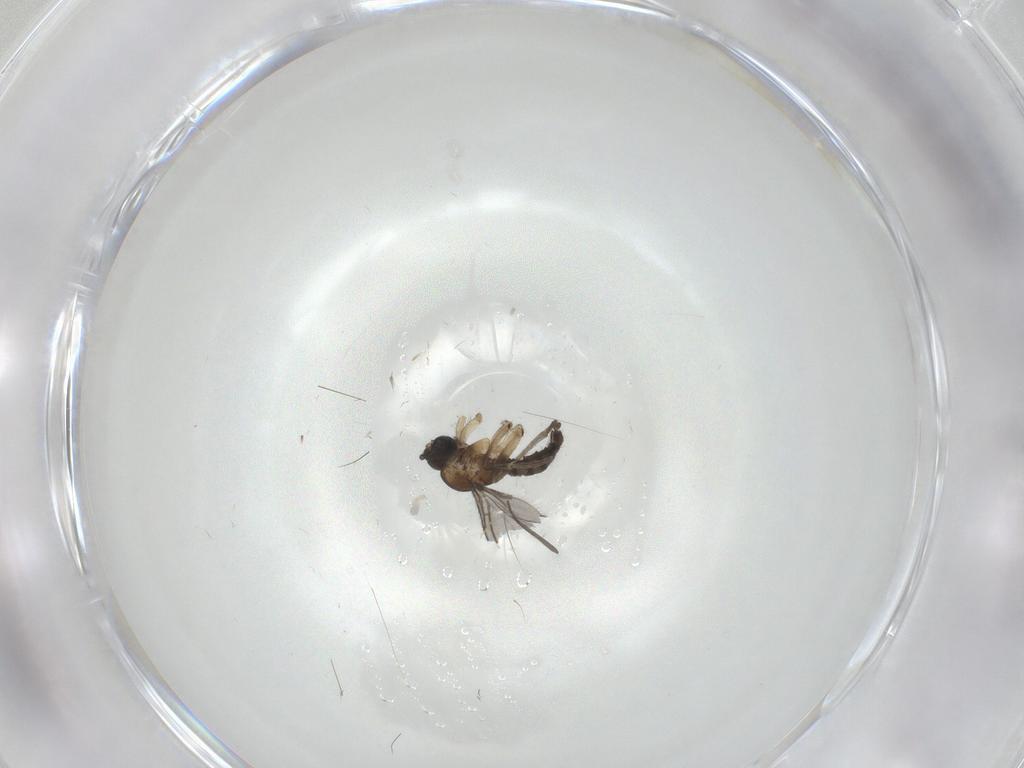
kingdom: Animalia
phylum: Arthropoda
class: Insecta
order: Diptera
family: Sciaridae
